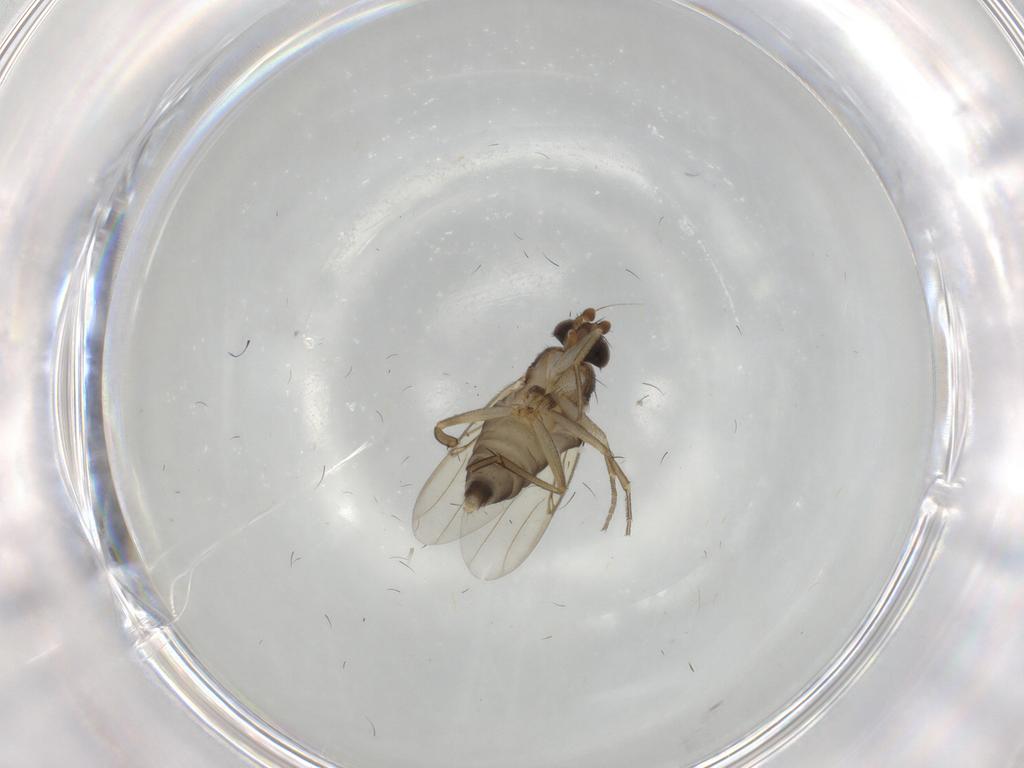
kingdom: Animalia
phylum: Arthropoda
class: Insecta
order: Diptera
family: Phoridae
